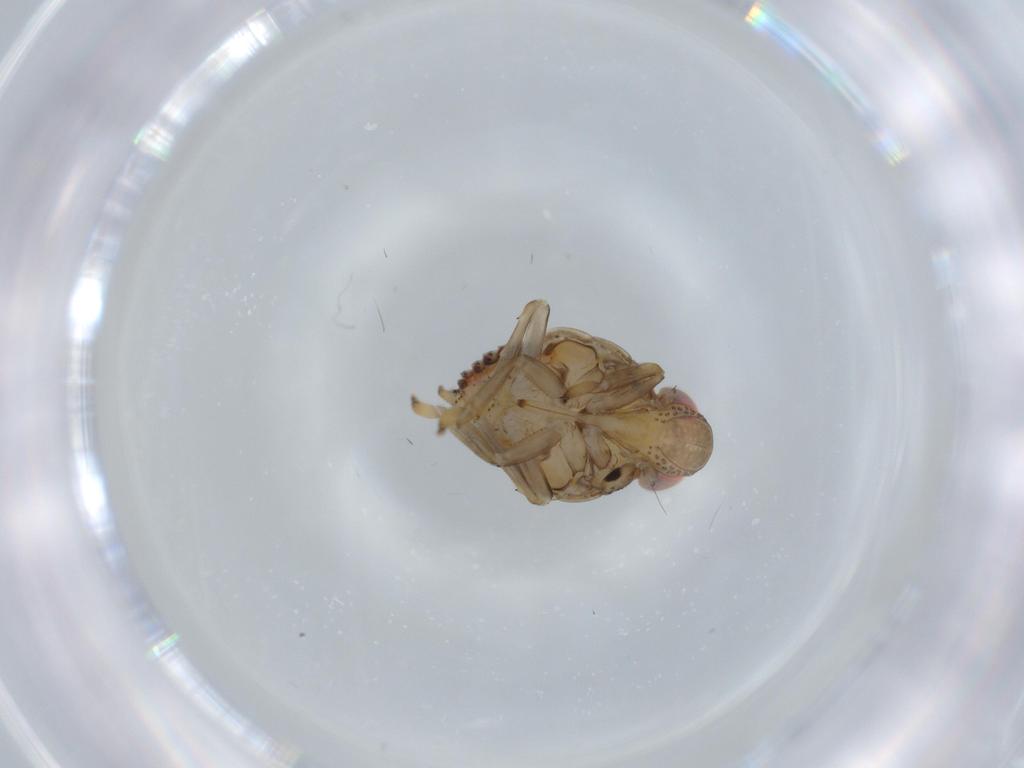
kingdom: Animalia
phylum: Arthropoda
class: Insecta
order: Hemiptera
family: Issidae
